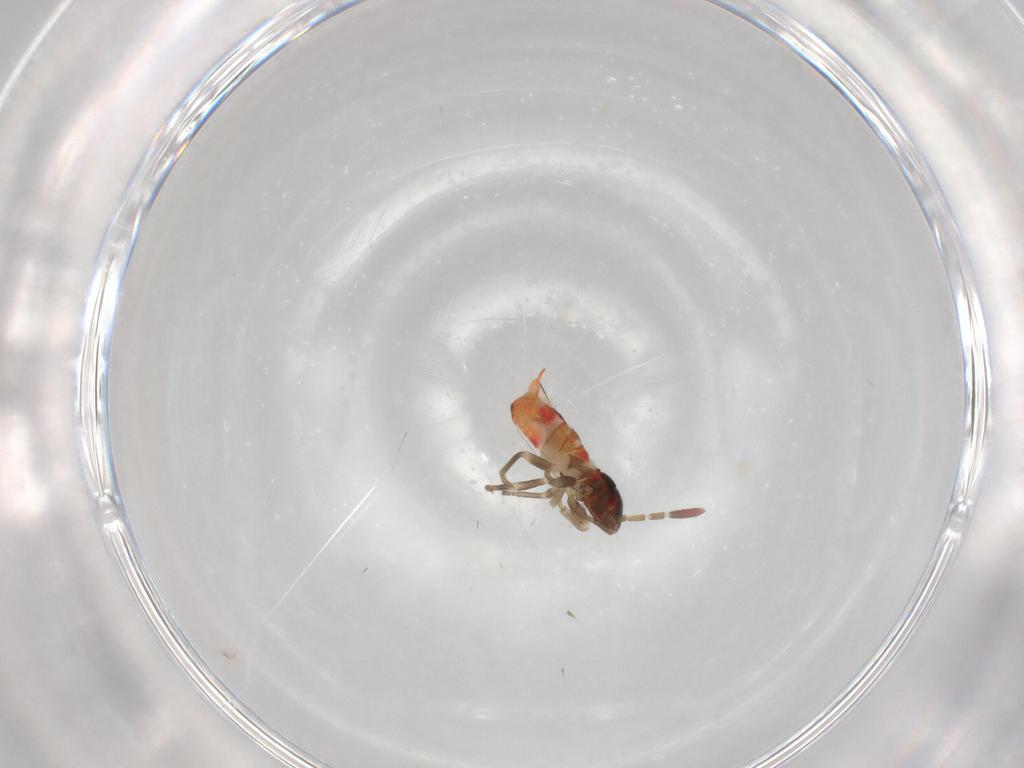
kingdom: Animalia
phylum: Arthropoda
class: Insecta
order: Hemiptera
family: Rhyparochromidae
